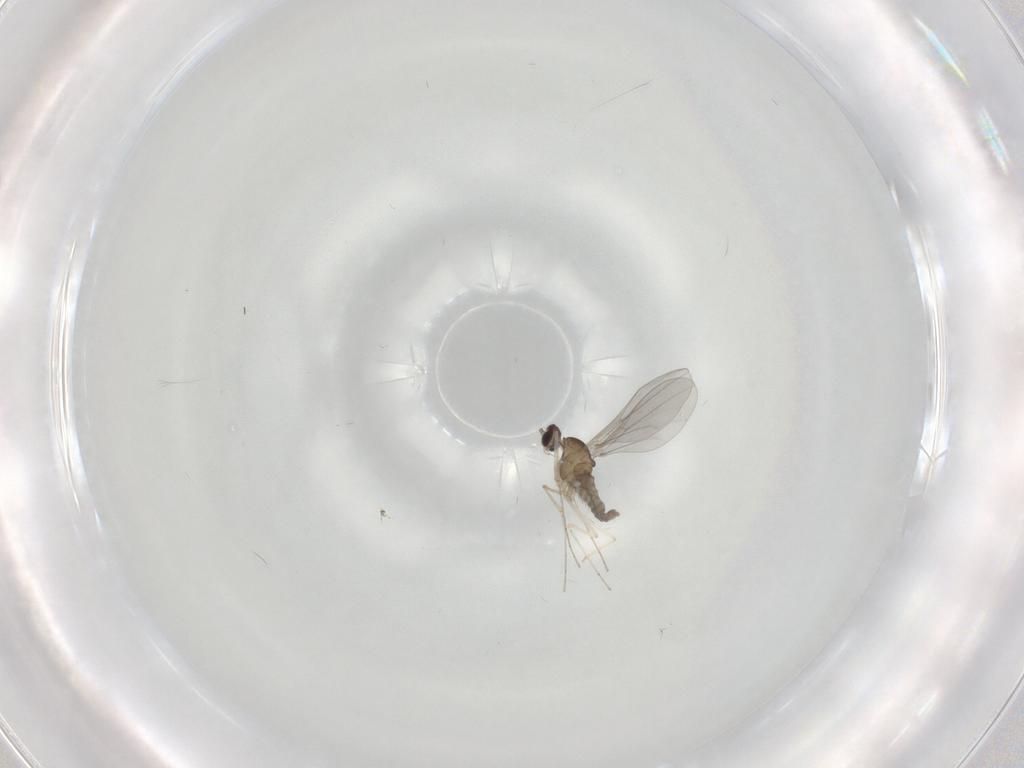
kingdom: Animalia
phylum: Arthropoda
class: Insecta
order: Diptera
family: Cecidomyiidae
